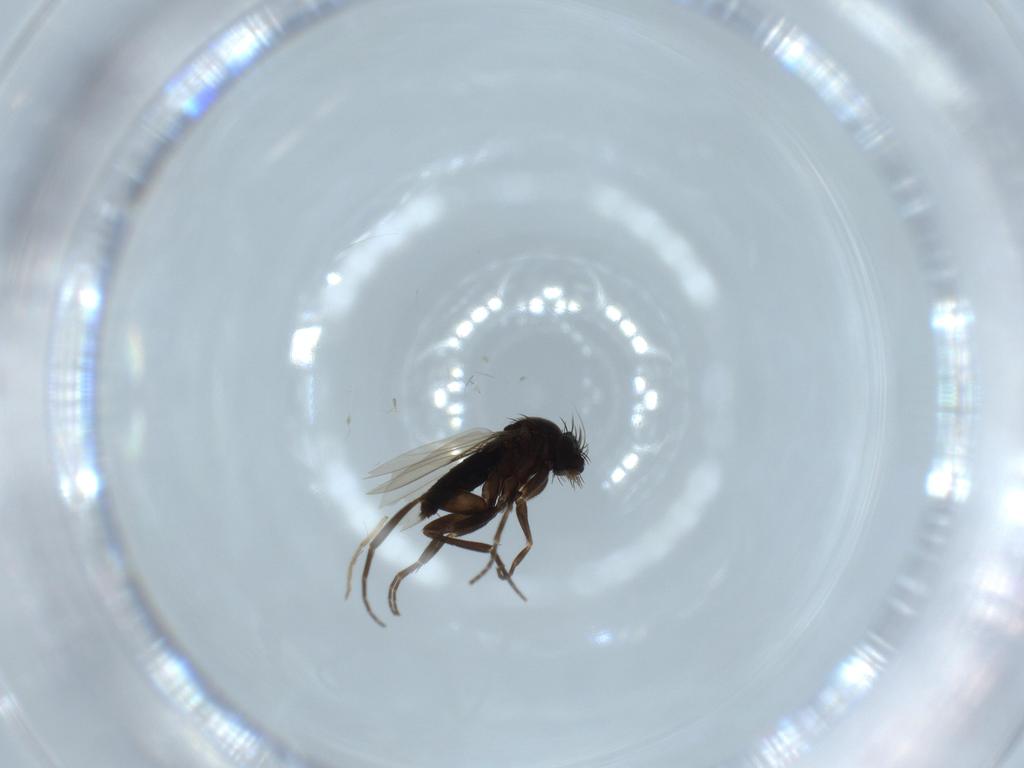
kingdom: Animalia
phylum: Arthropoda
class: Insecta
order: Diptera
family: Phoridae
